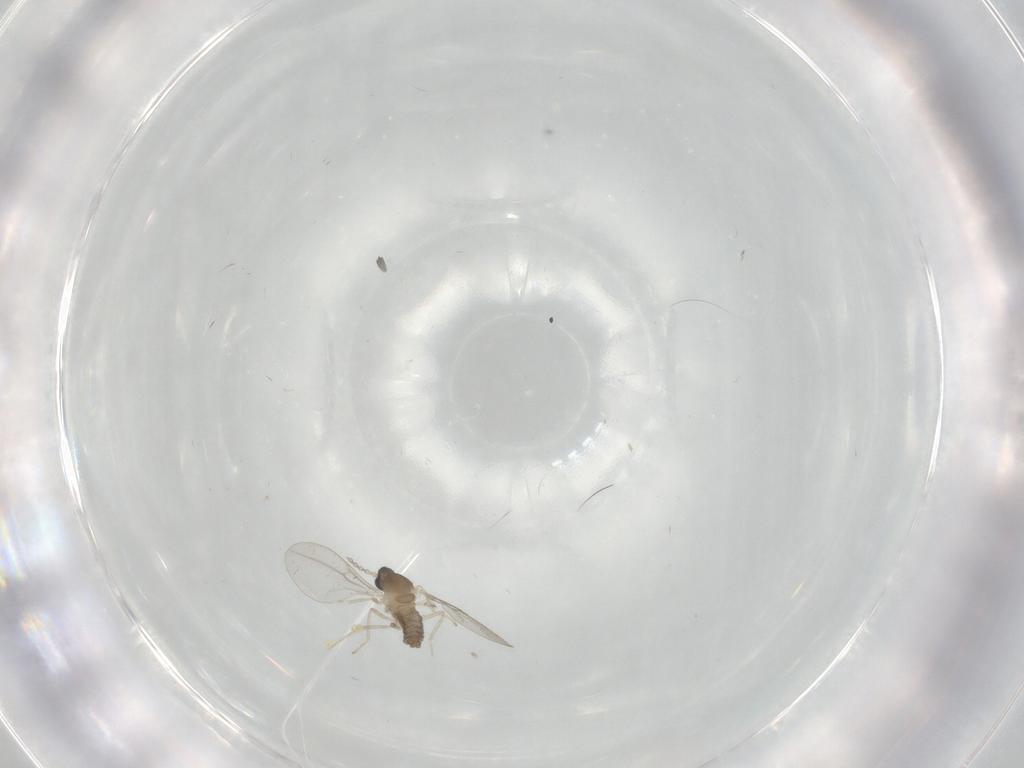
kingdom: Animalia
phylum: Arthropoda
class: Insecta
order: Diptera
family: Cecidomyiidae
